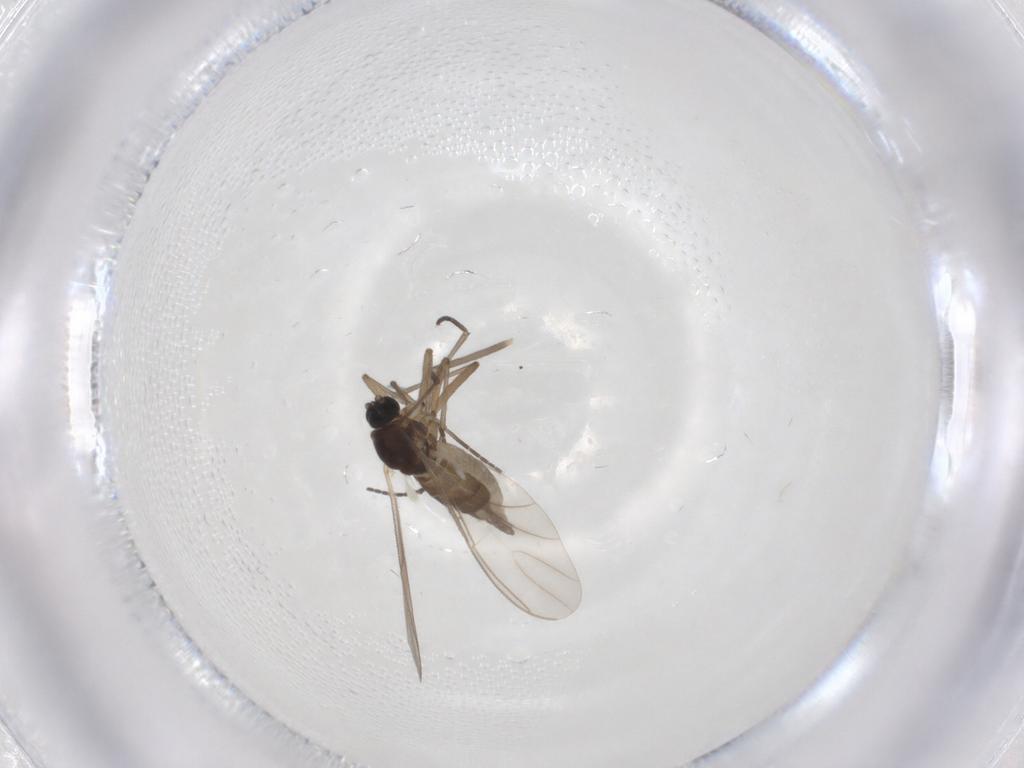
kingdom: Animalia
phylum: Arthropoda
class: Insecta
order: Diptera
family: Chironomidae
